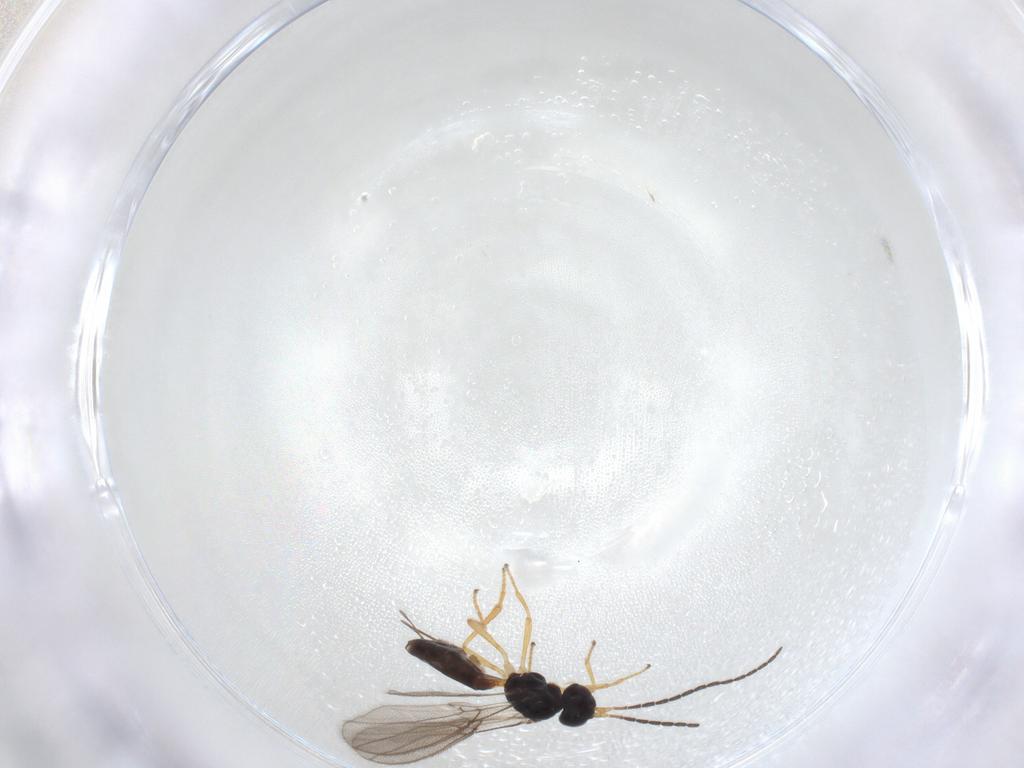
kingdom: Animalia
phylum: Arthropoda
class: Insecta
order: Hymenoptera
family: Braconidae
